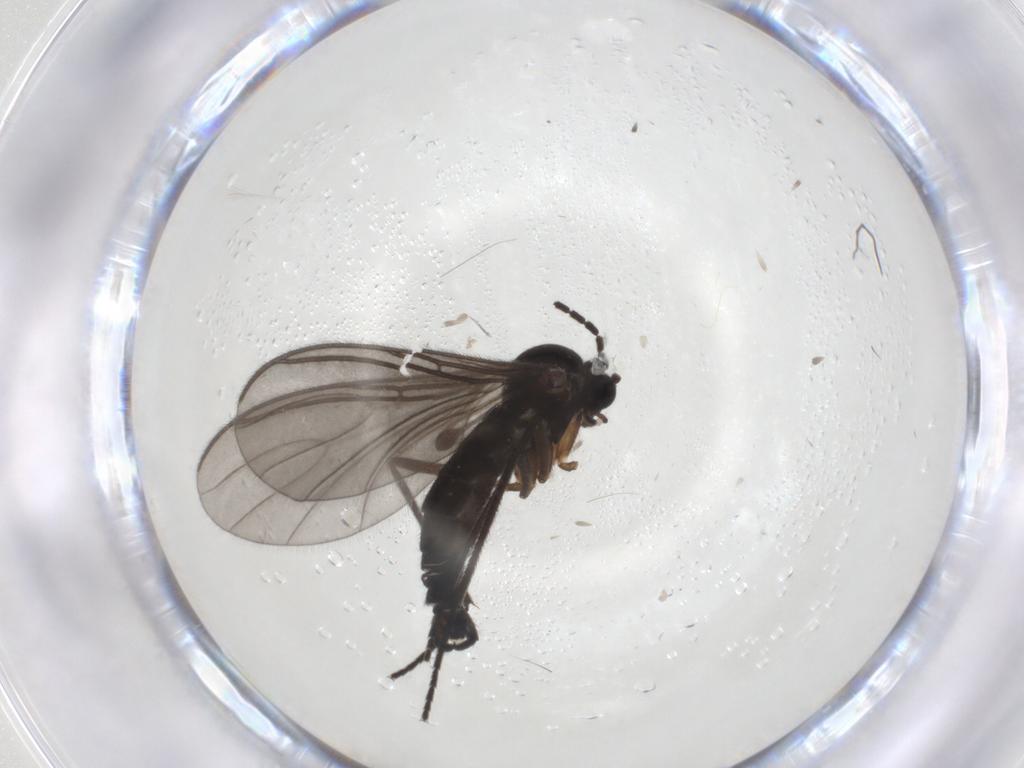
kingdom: Animalia
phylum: Arthropoda
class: Insecta
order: Diptera
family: Sciaridae
